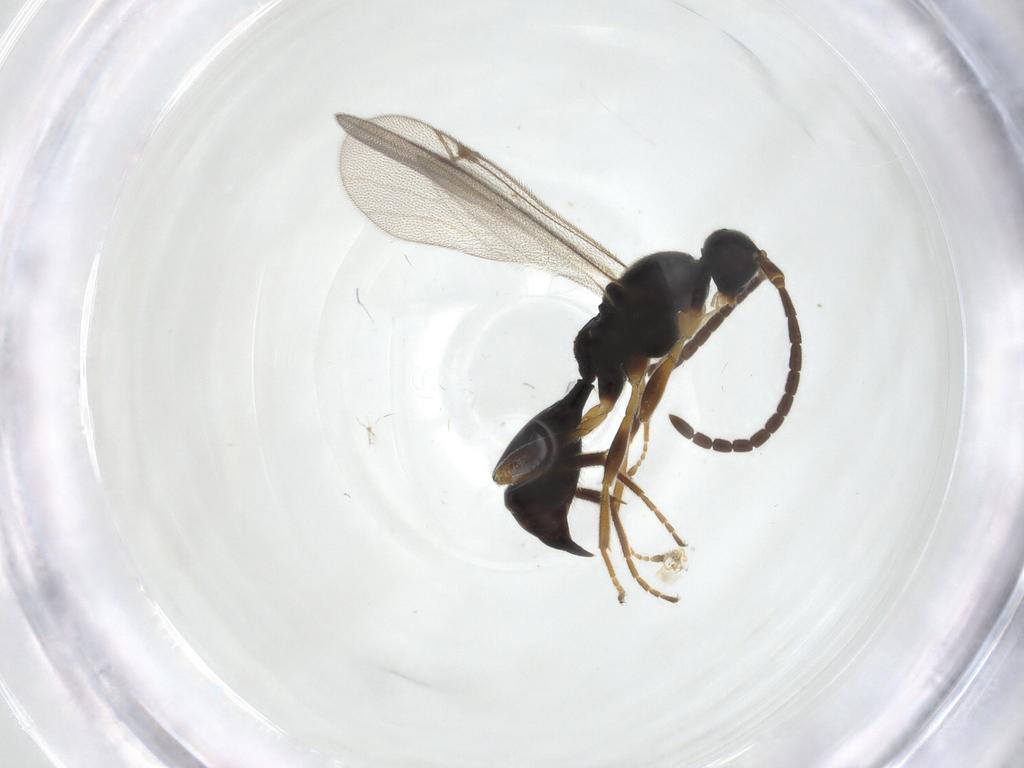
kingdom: Animalia
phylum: Arthropoda
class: Insecta
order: Hymenoptera
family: Proctotrupidae
